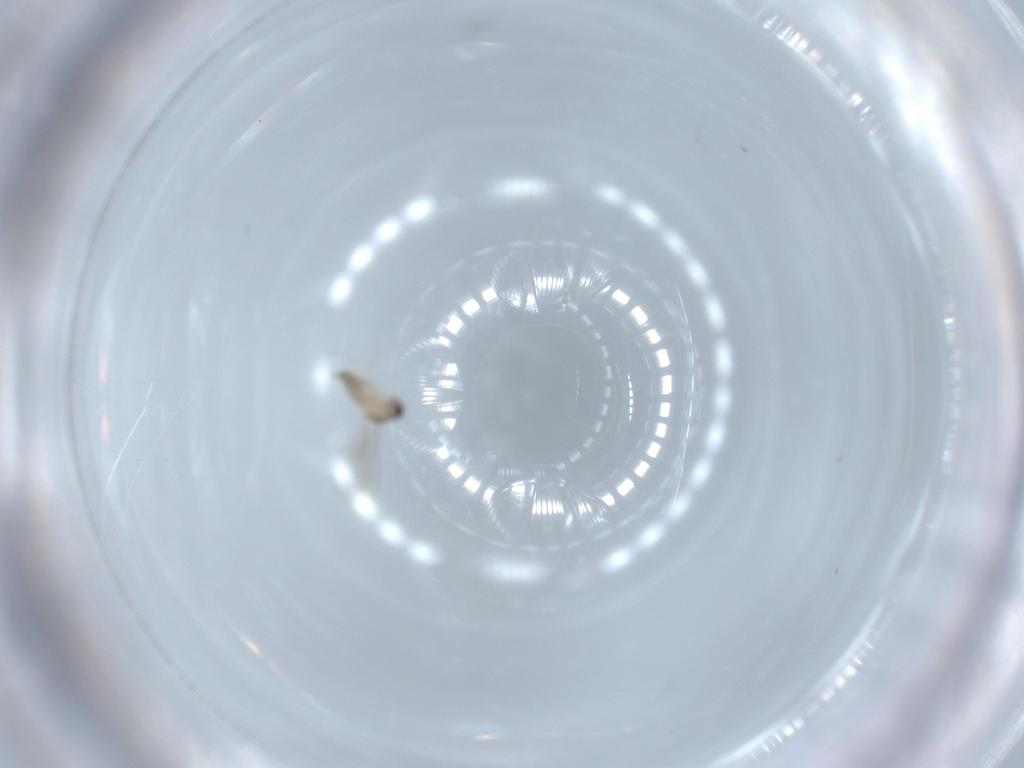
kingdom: Animalia
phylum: Arthropoda
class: Insecta
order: Diptera
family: Cecidomyiidae
